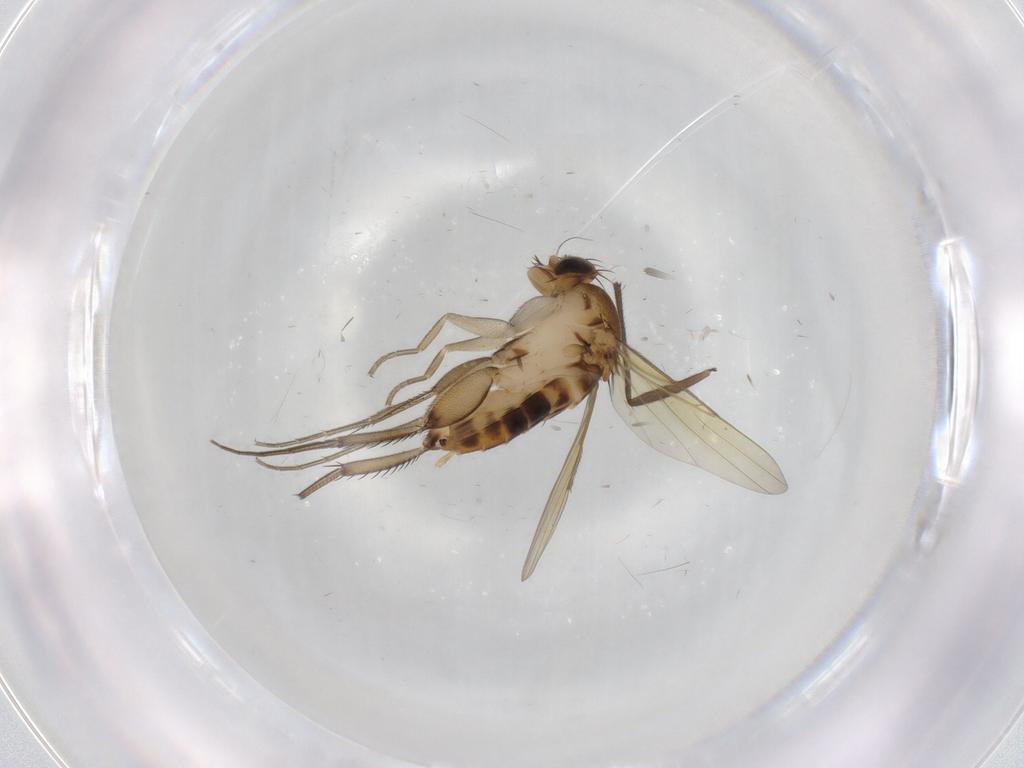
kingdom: Animalia
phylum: Arthropoda
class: Insecta
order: Diptera
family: Phoridae
